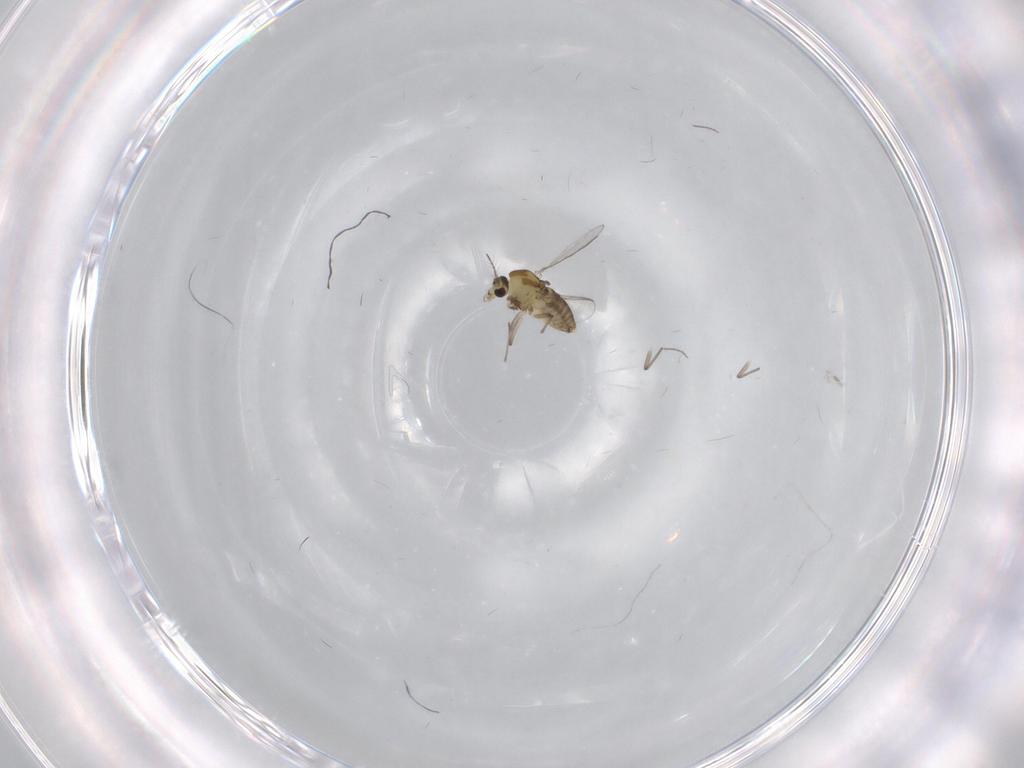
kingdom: Animalia
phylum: Arthropoda
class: Insecta
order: Diptera
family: Chironomidae
